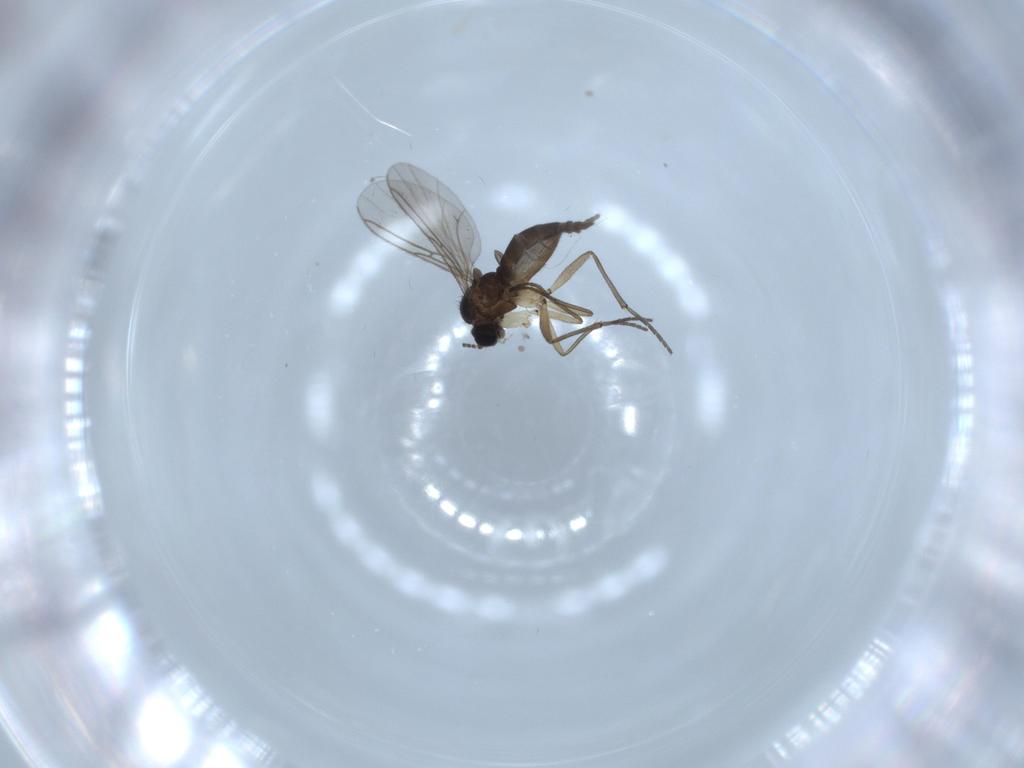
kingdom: Animalia
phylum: Arthropoda
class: Insecta
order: Diptera
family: Sciaridae
